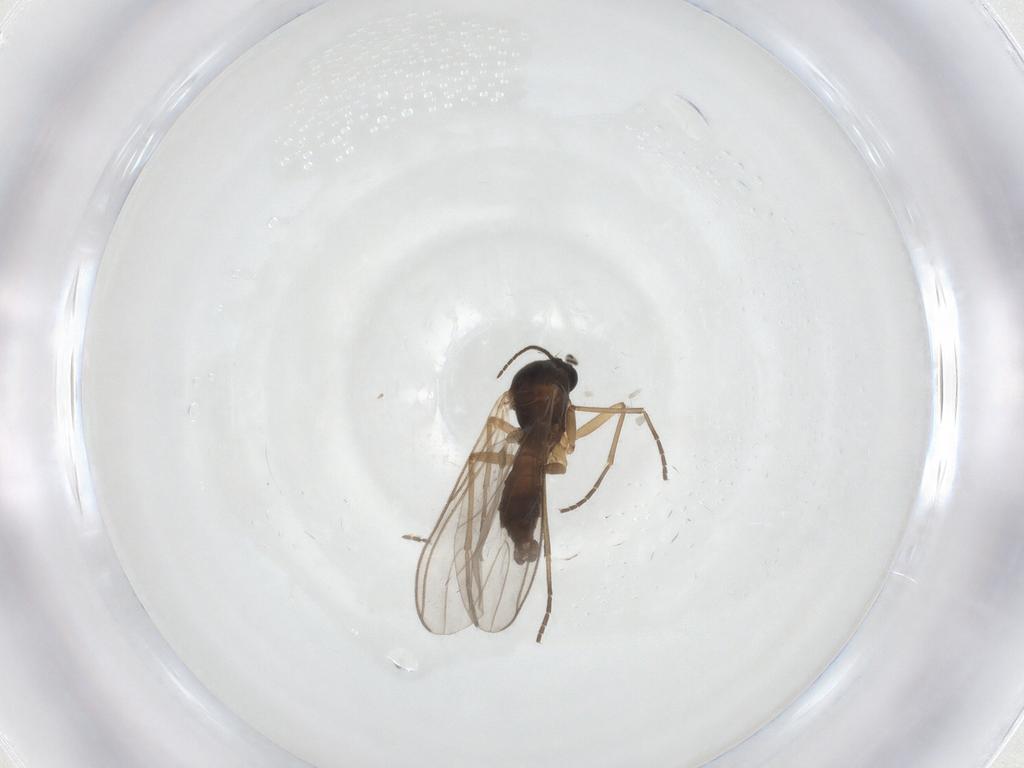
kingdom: Animalia
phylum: Arthropoda
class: Insecta
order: Diptera
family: Sciaridae
